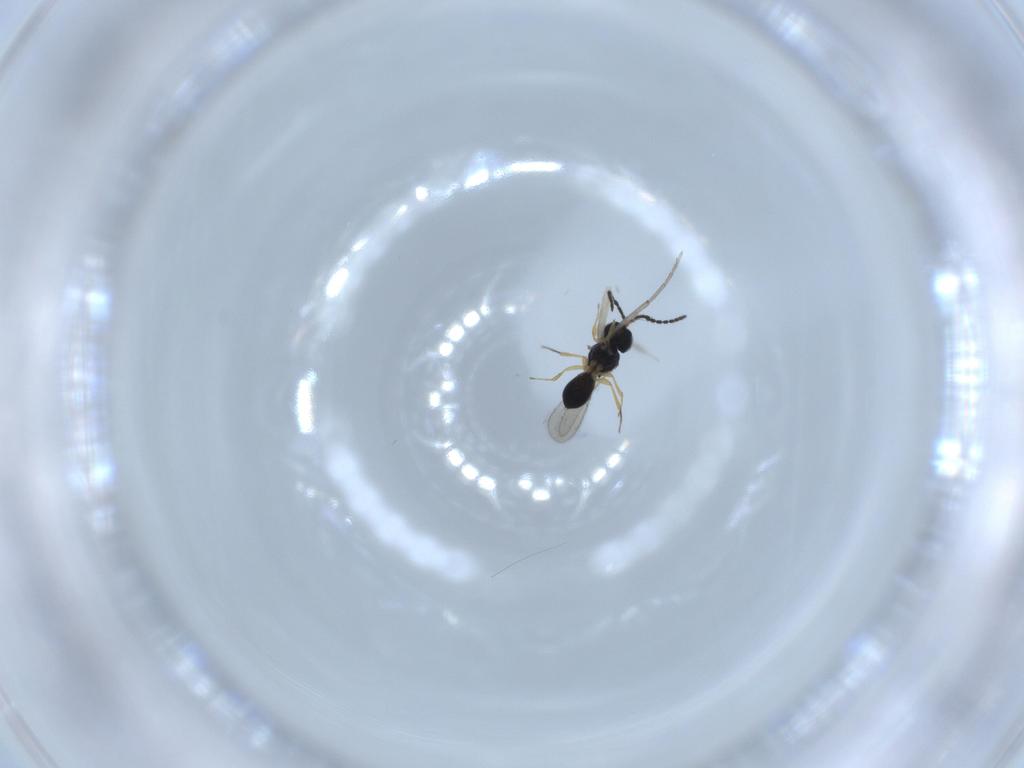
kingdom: Animalia
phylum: Arthropoda
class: Insecta
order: Hymenoptera
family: Scelionidae
